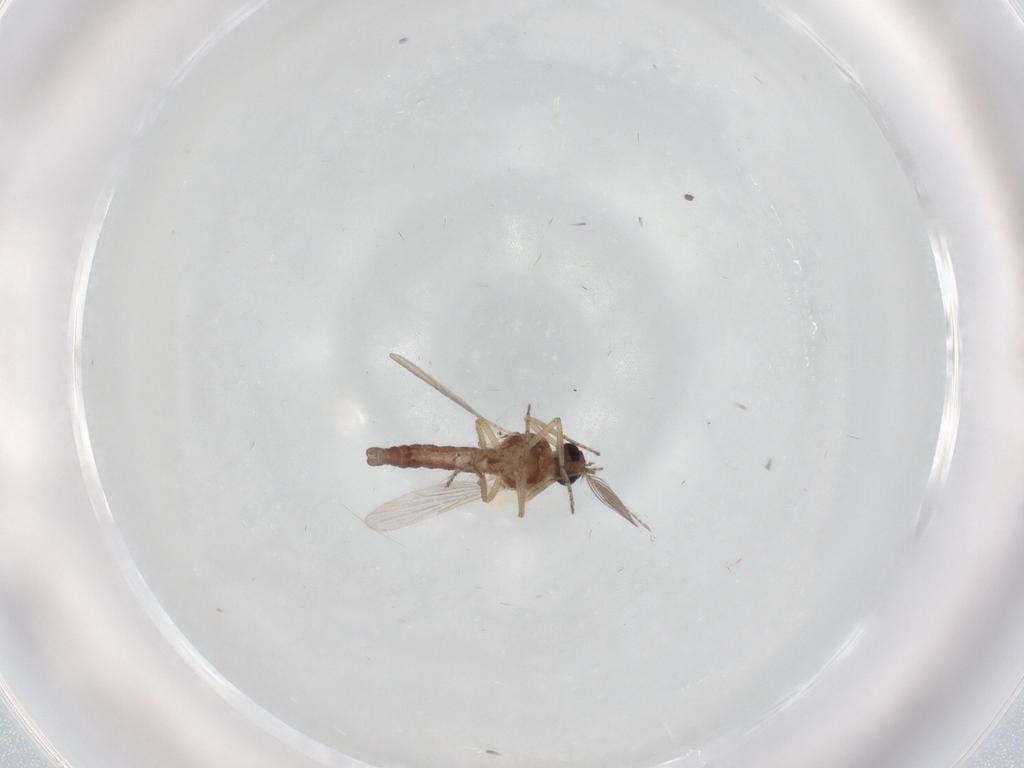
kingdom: Animalia
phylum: Arthropoda
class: Insecta
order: Diptera
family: Ceratopogonidae
